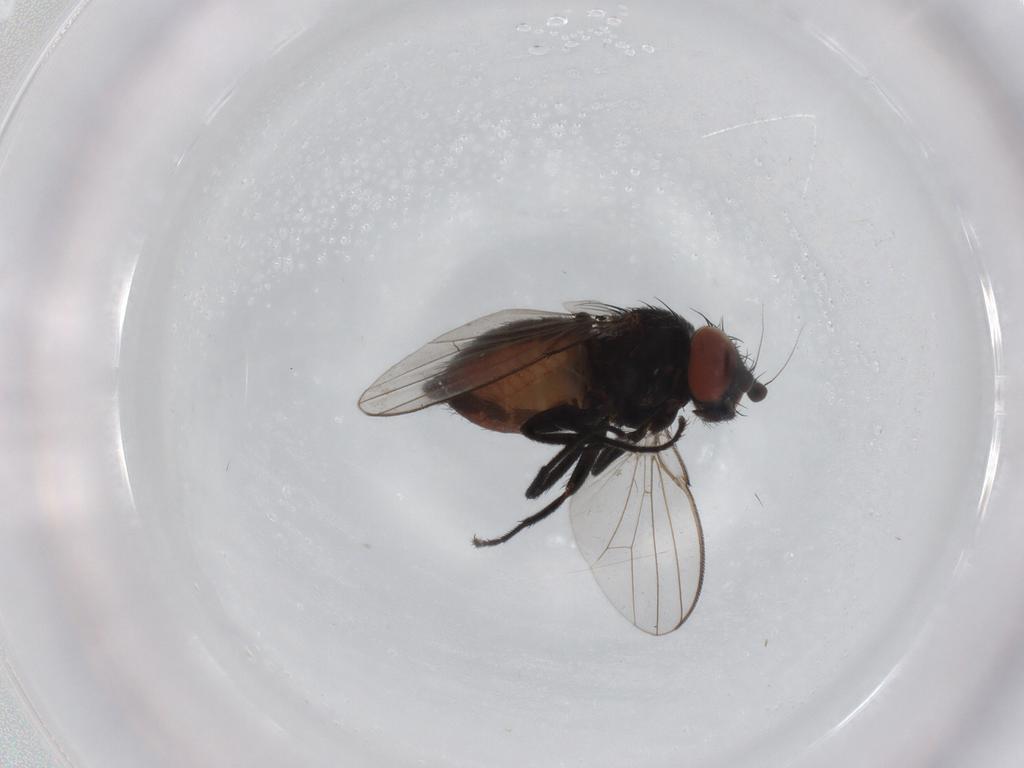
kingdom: Animalia
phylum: Arthropoda
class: Insecta
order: Diptera
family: Milichiidae
